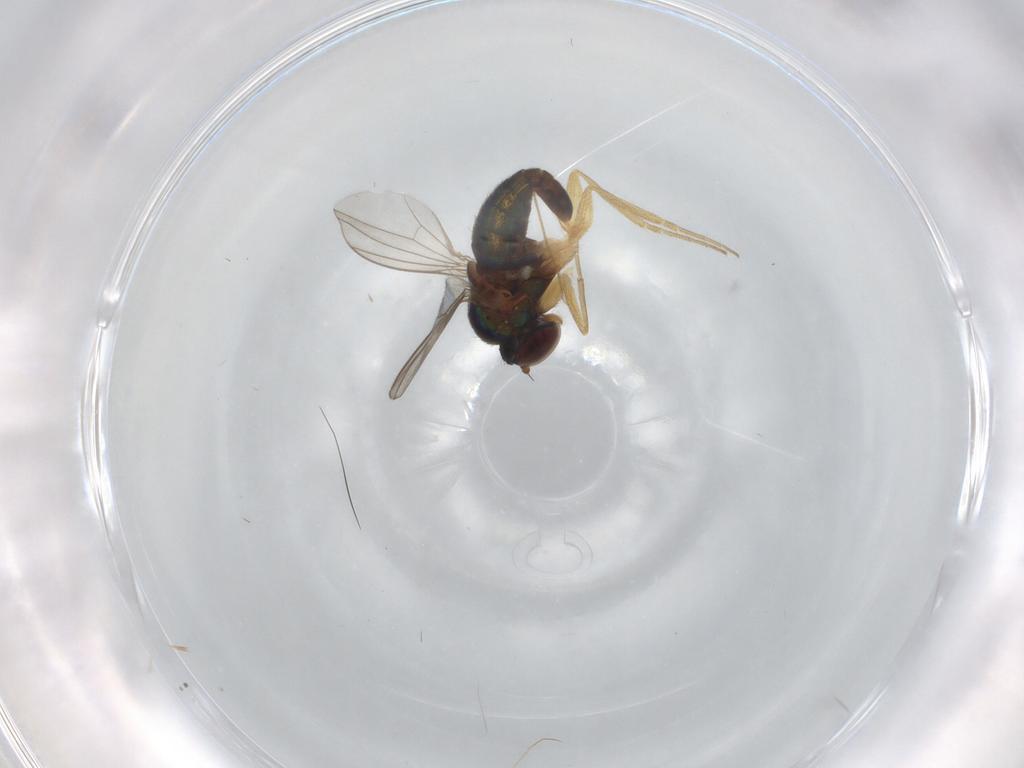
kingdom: Animalia
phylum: Arthropoda
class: Insecta
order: Diptera
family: Dolichopodidae
